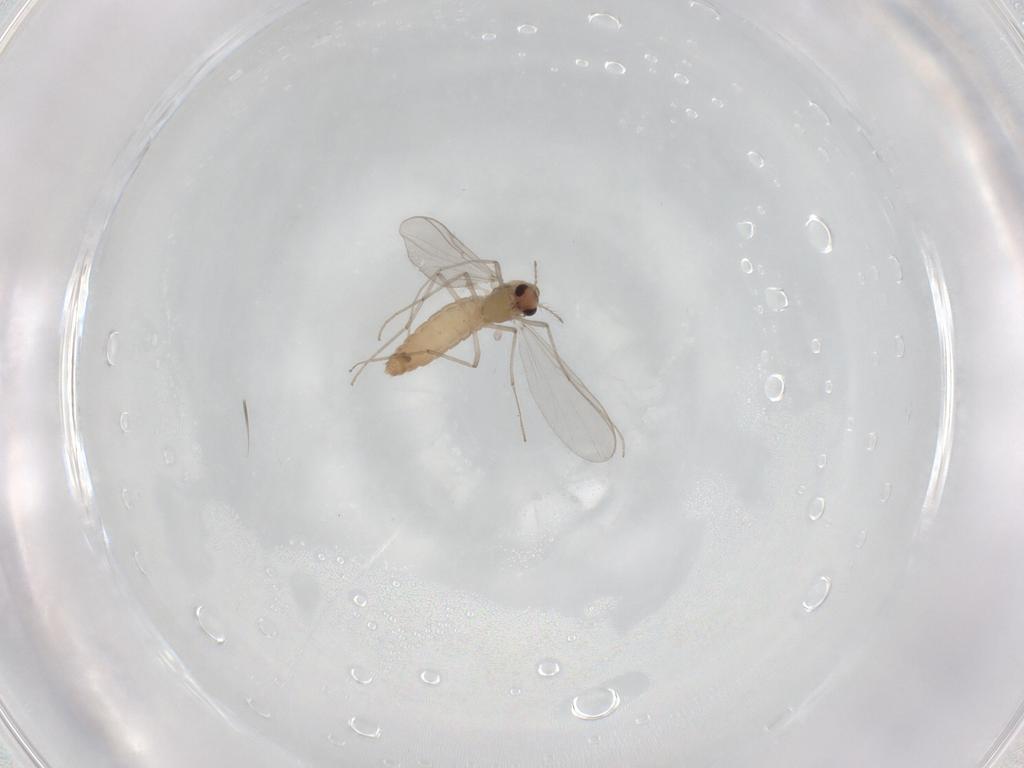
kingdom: Animalia
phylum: Arthropoda
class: Insecta
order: Diptera
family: Chironomidae
